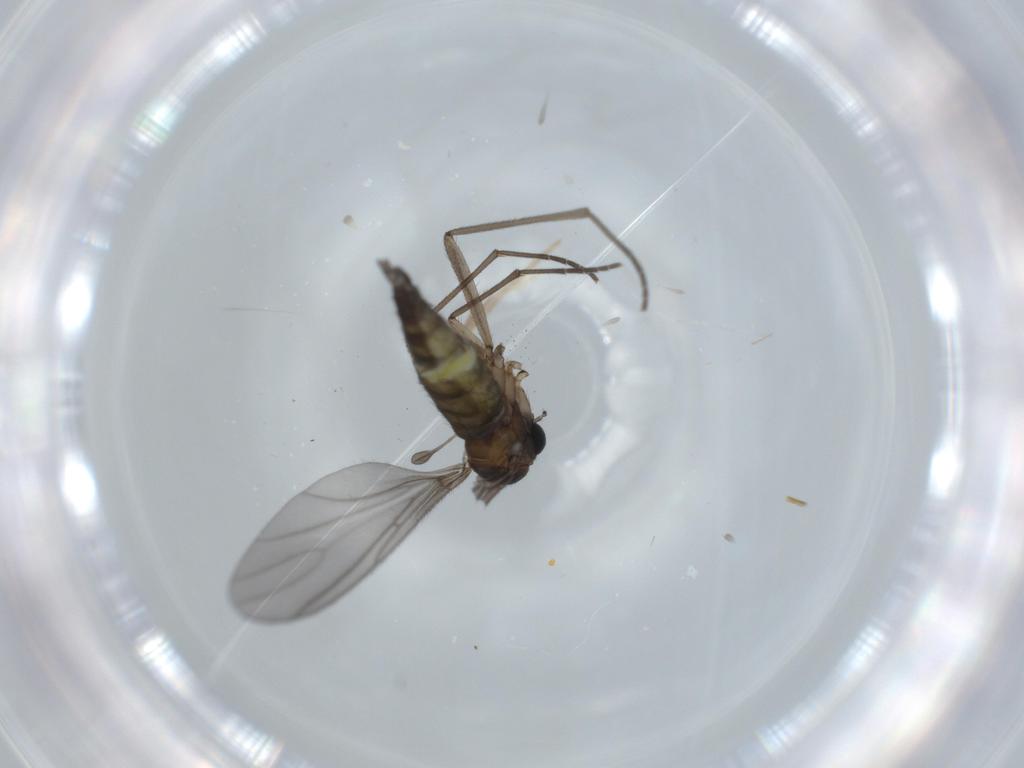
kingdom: Animalia
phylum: Arthropoda
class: Insecta
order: Diptera
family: Sciaridae
